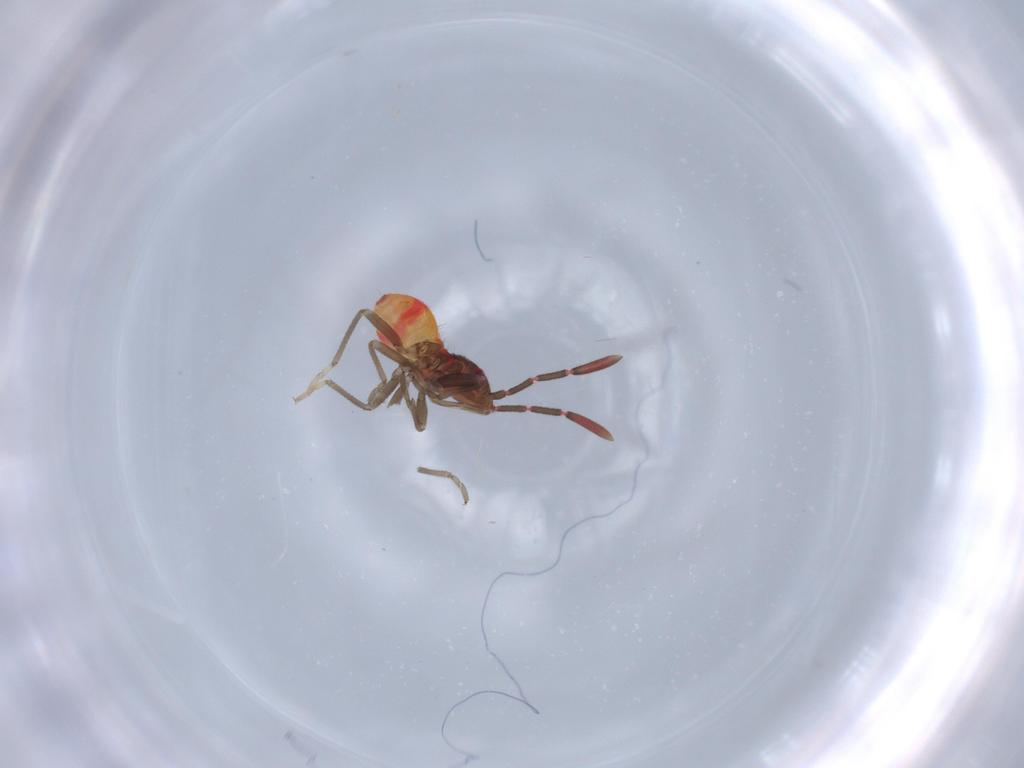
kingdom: Animalia
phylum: Arthropoda
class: Insecta
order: Hemiptera
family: Rhyparochromidae
